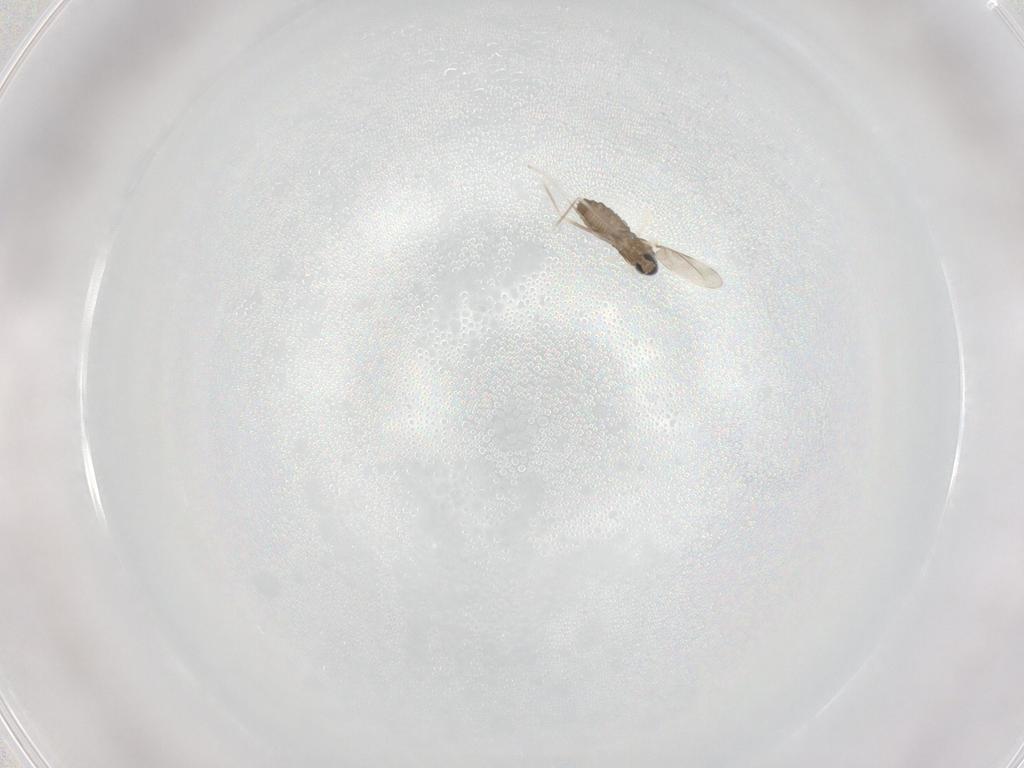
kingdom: Animalia
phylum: Arthropoda
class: Insecta
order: Diptera
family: Cecidomyiidae
